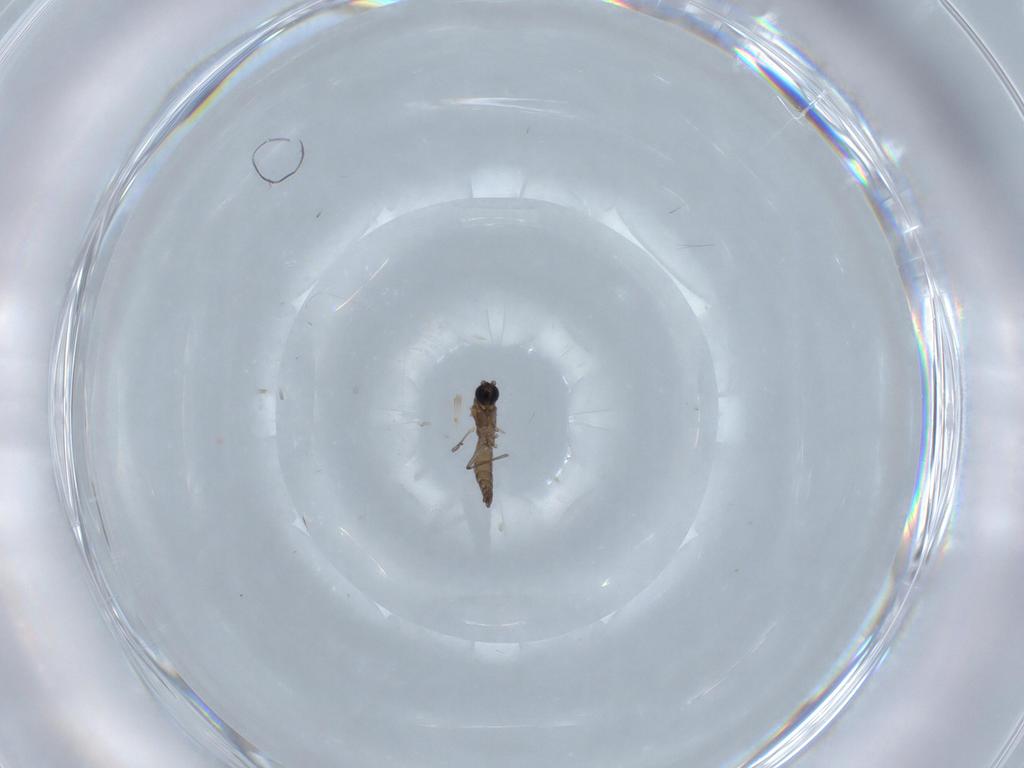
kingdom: Animalia
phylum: Arthropoda
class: Insecta
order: Diptera
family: Sciaridae
